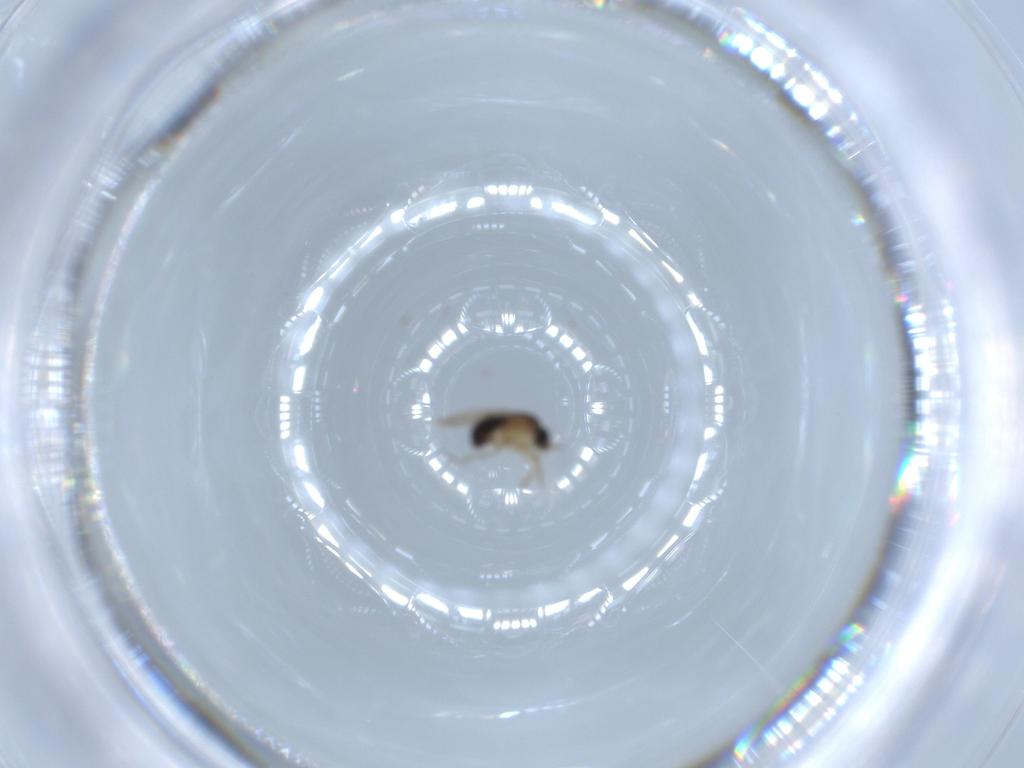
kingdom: Animalia
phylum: Arthropoda
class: Insecta
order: Diptera
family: Phoridae
